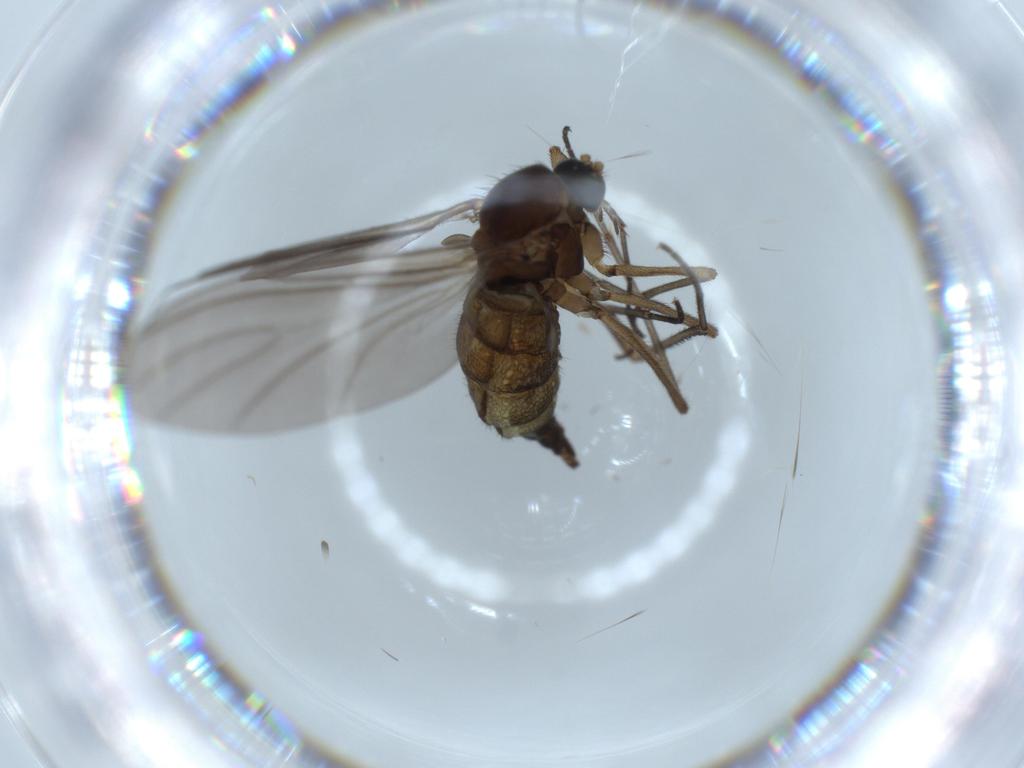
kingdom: Animalia
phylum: Arthropoda
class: Insecta
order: Diptera
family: Sciaridae
